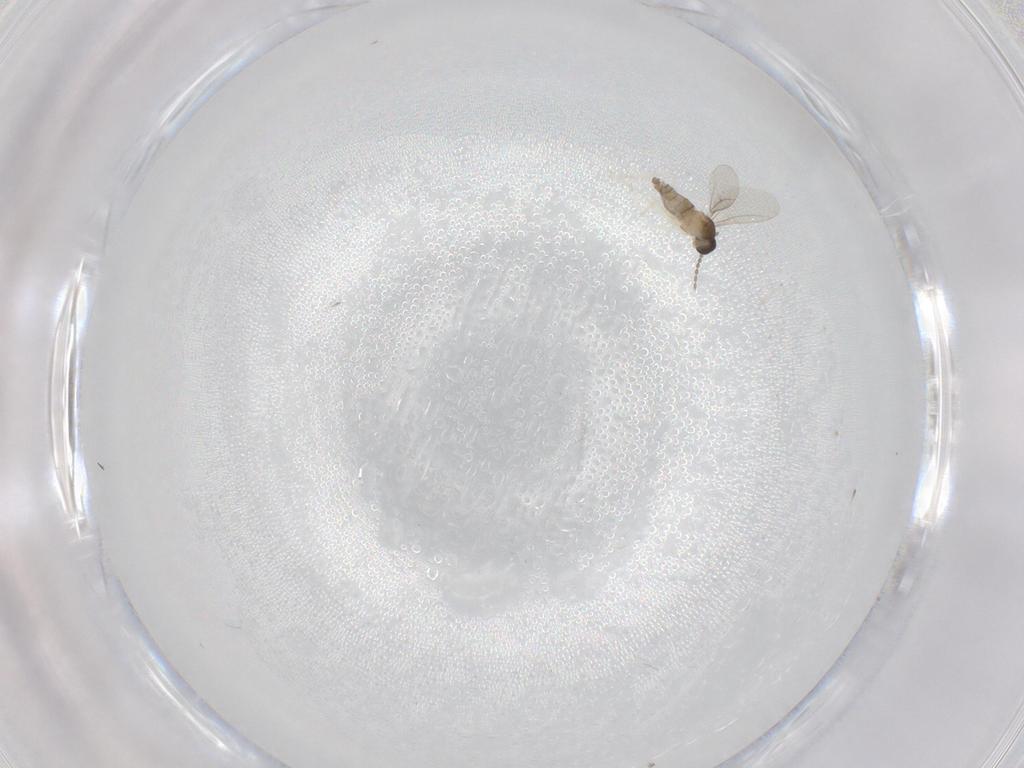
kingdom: Animalia
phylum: Arthropoda
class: Insecta
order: Diptera
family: Cecidomyiidae
